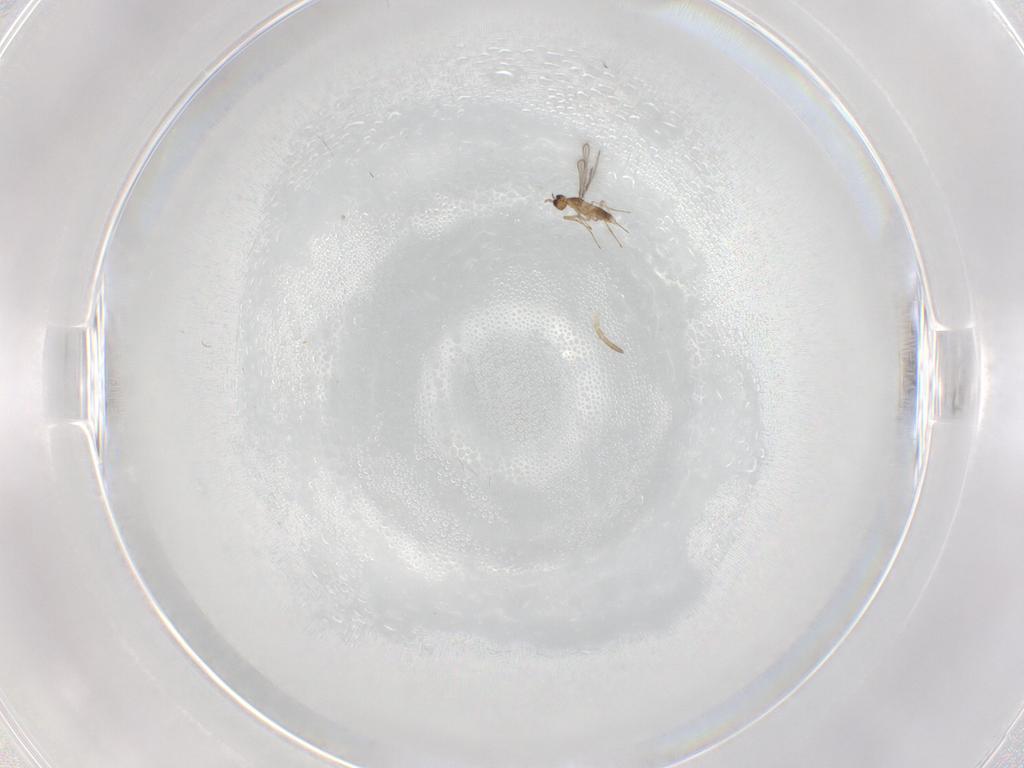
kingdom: Animalia
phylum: Arthropoda
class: Insecta
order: Hymenoptera
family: Mymaridae
